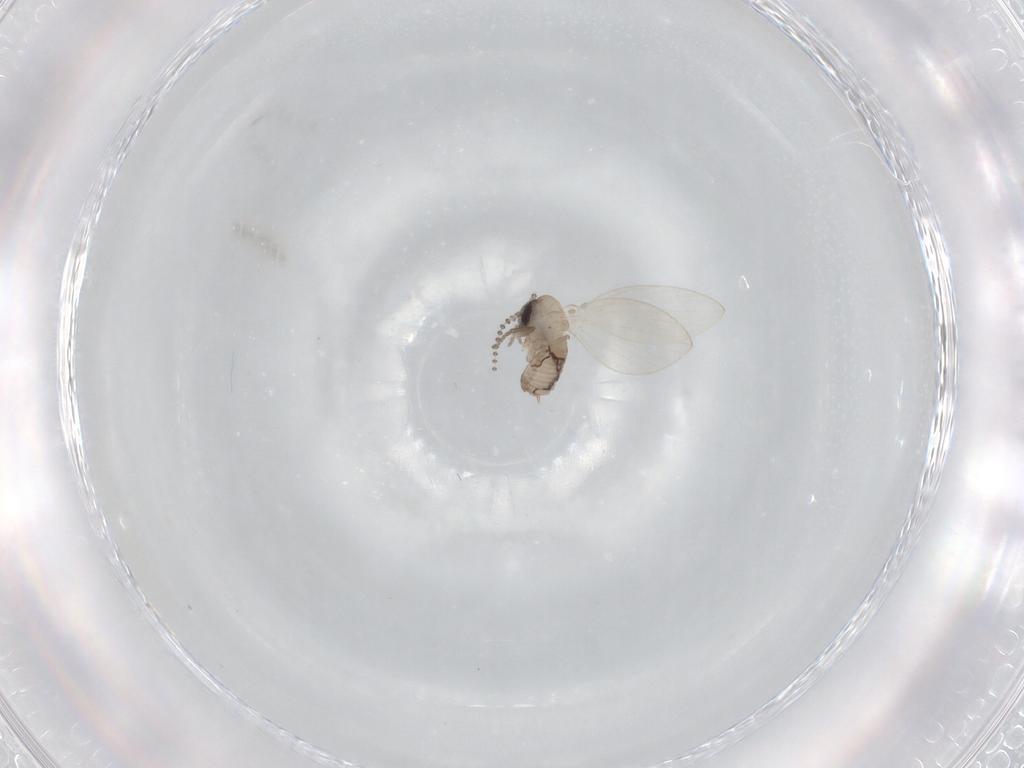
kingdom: Animalia
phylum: Arthropoda
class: Insecta
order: Diptera
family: Psychodidae
